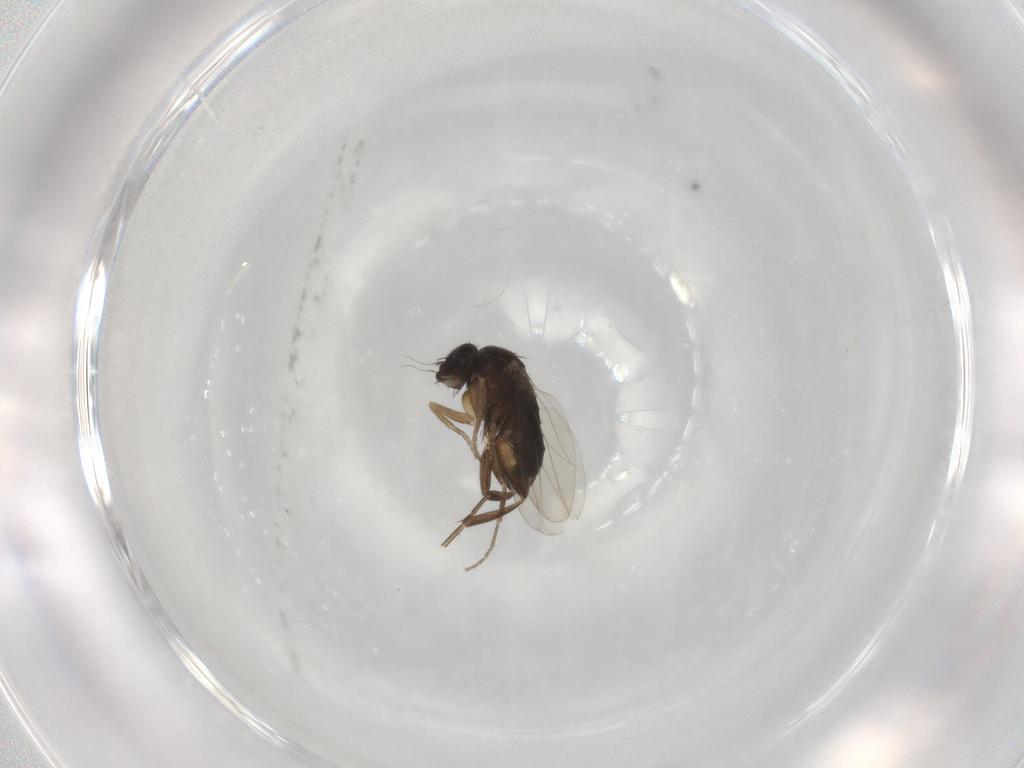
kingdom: Animalia
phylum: Arthropoda
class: Insecta
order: Diptera
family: Phoridae
